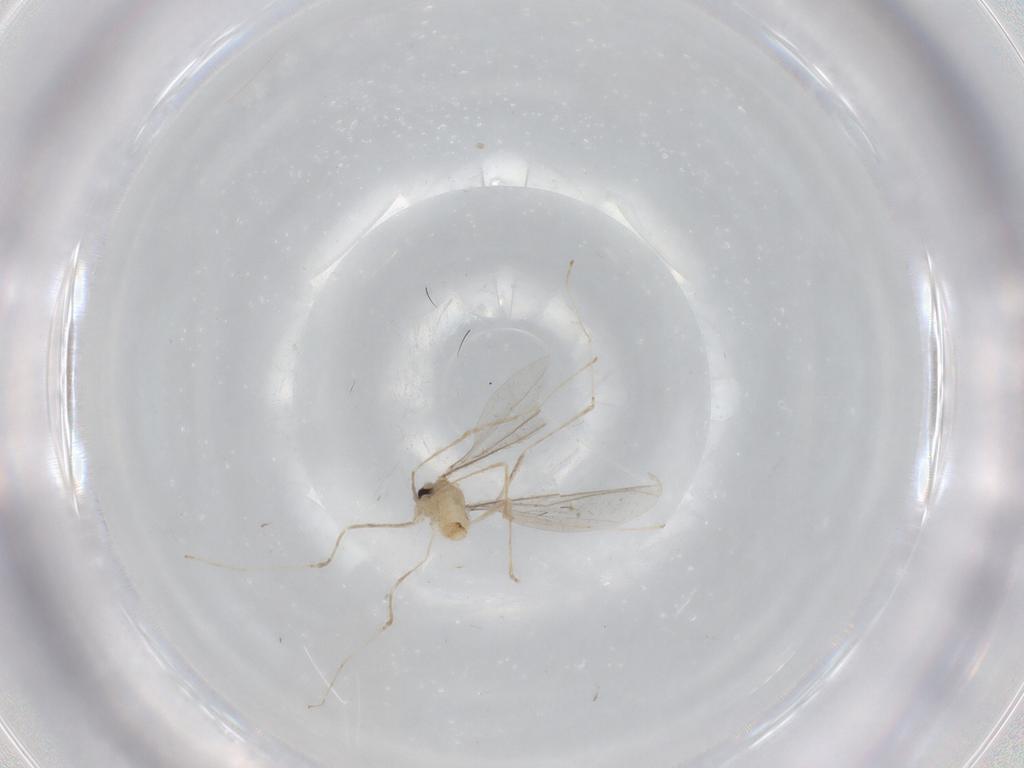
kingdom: Animalia
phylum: Arthropoda
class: Insecta
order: Diptera
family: Cecidomyiidae
